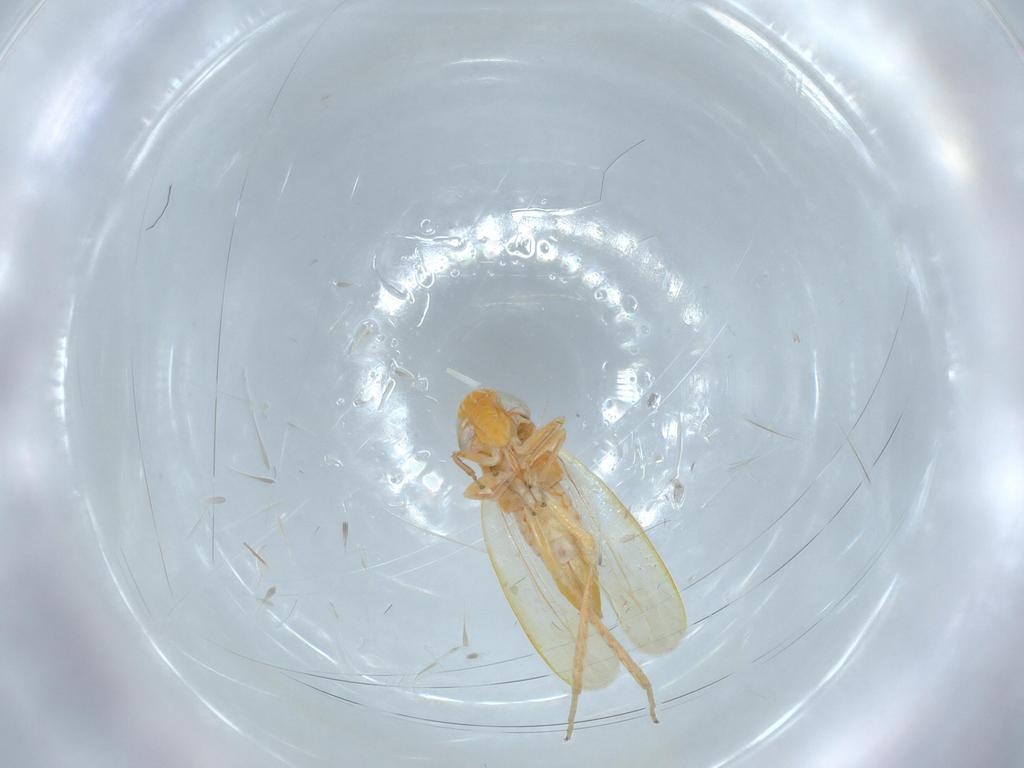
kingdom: Animalia
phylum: Arthropoda
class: Insecta
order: Hemiptera
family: Cicadellidae
